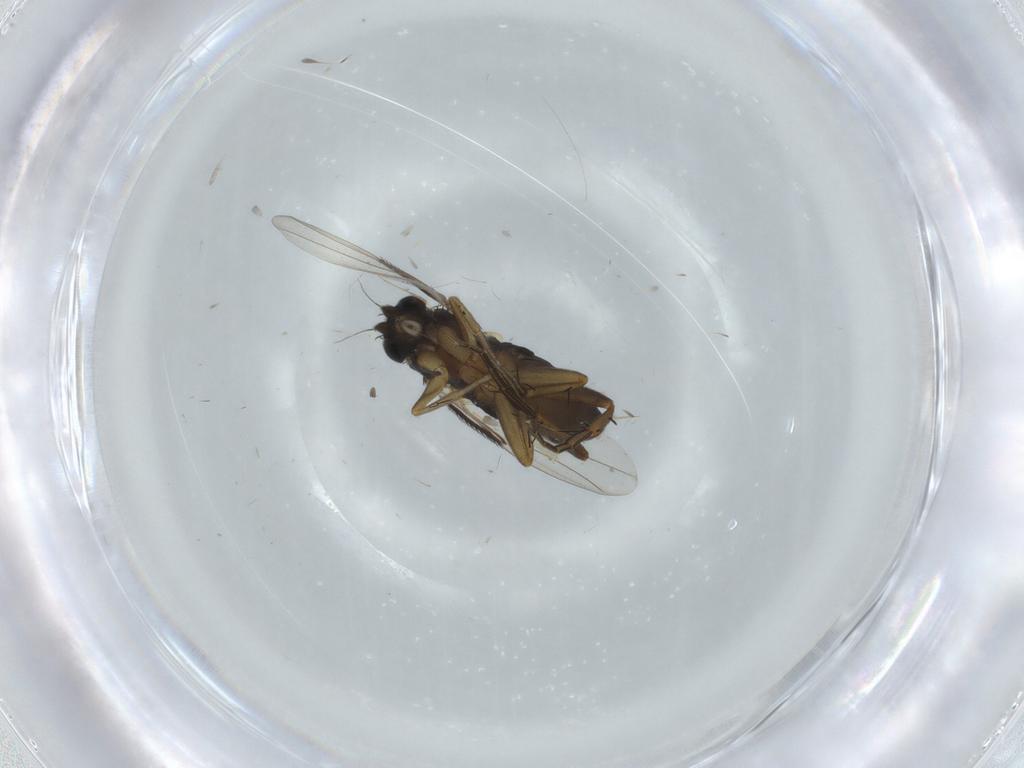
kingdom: Animalia
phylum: Arthropoda
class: Insecta
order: Diptera
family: Phoridae
